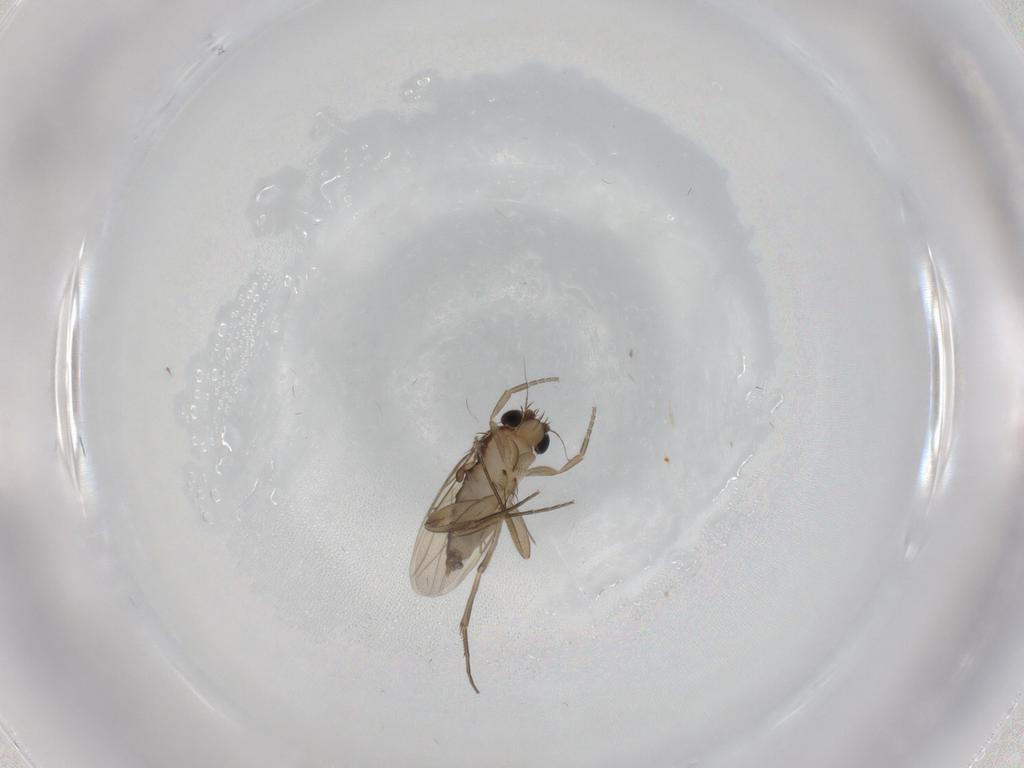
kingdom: Animalia
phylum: Arthropoda
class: Insecta
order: Diptera
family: Phoridae
